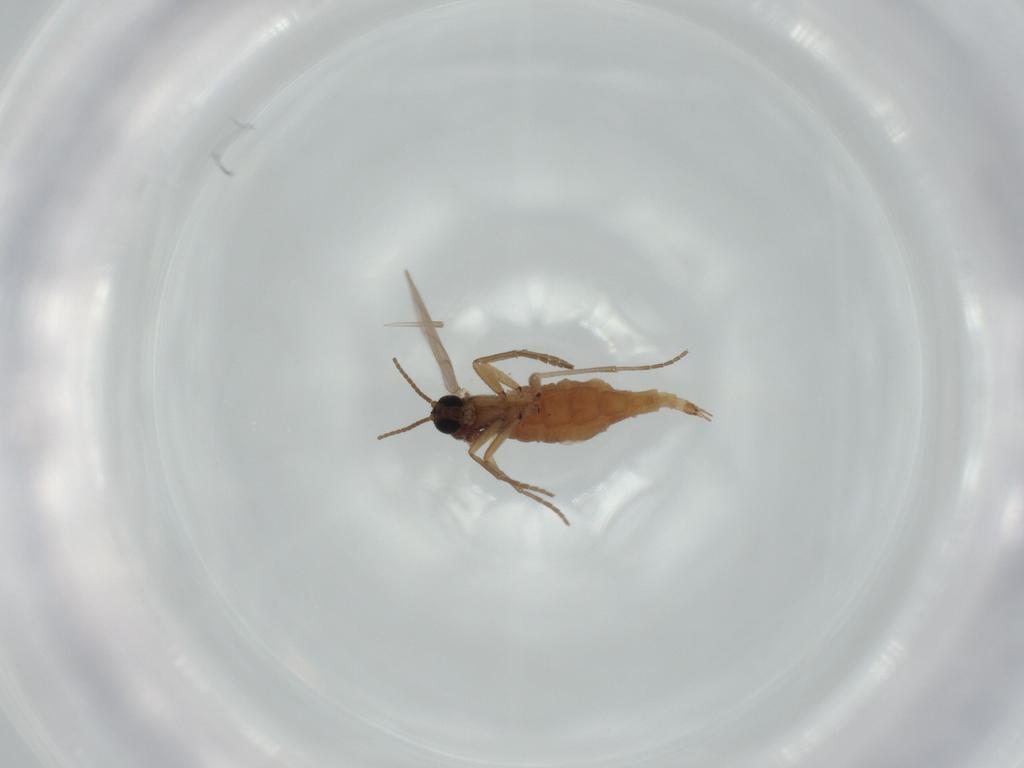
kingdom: Animalia
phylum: Arthropoda
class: Insecta
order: Diptera
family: Sciaridae
